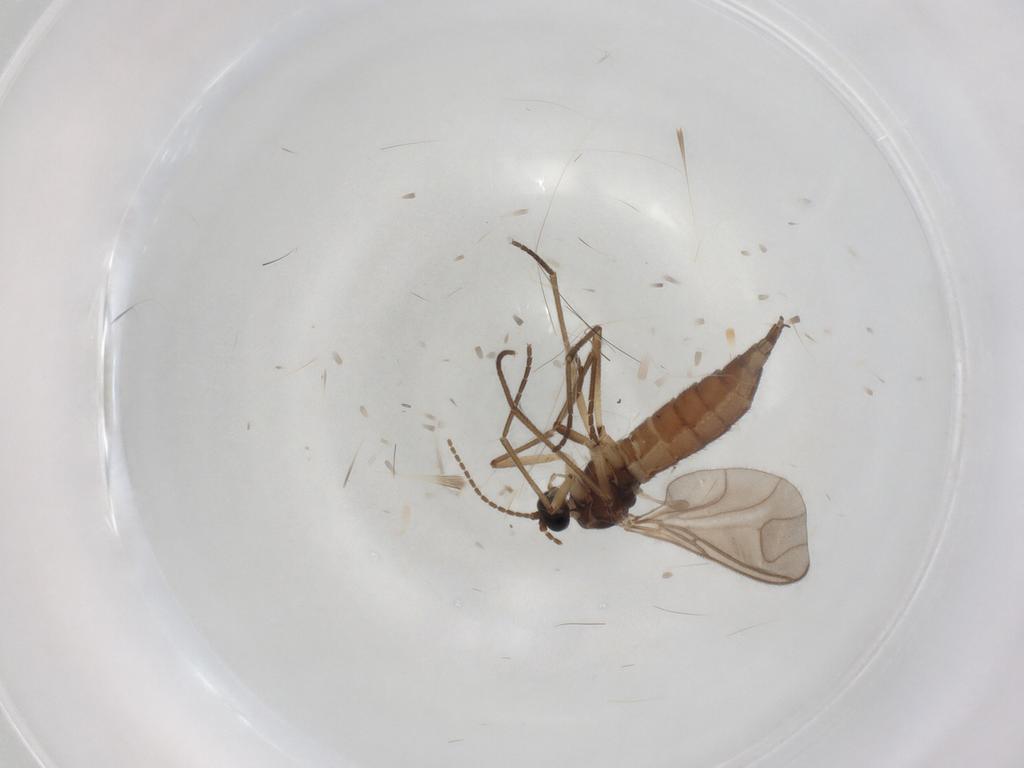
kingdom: Animalia
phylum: Arthropoda
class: Insecta
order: Diptera
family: Sciaridae
